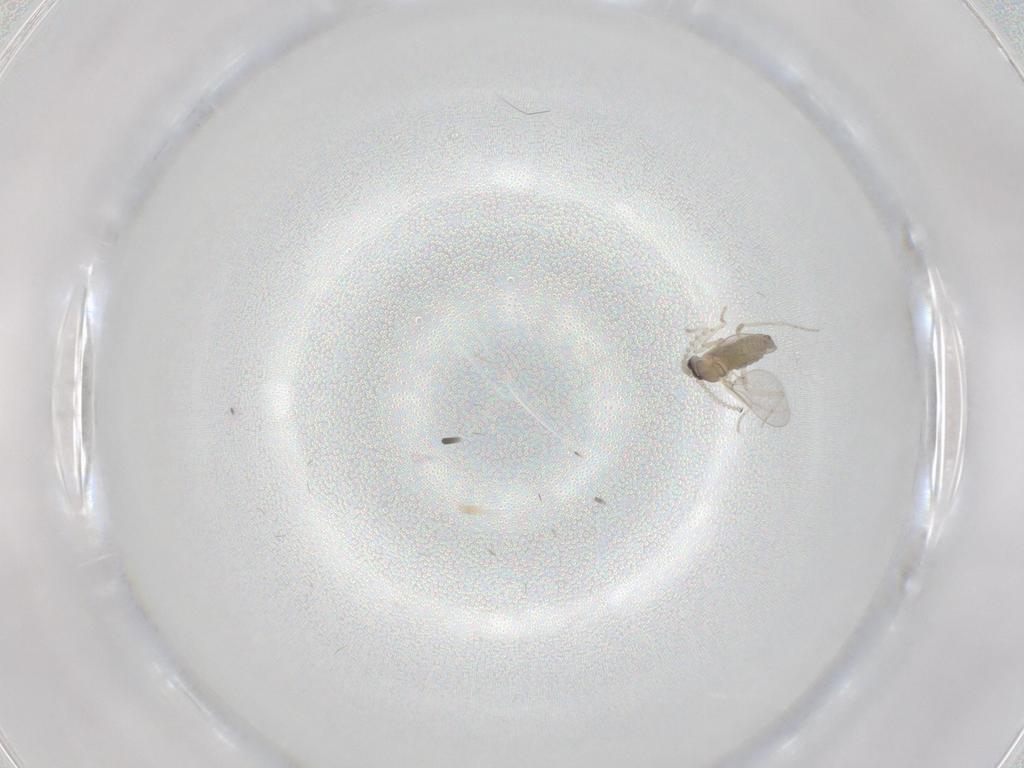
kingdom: Animalia
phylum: Arthropoda
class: Insecta
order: Diptera
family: Cecidomyiidae
